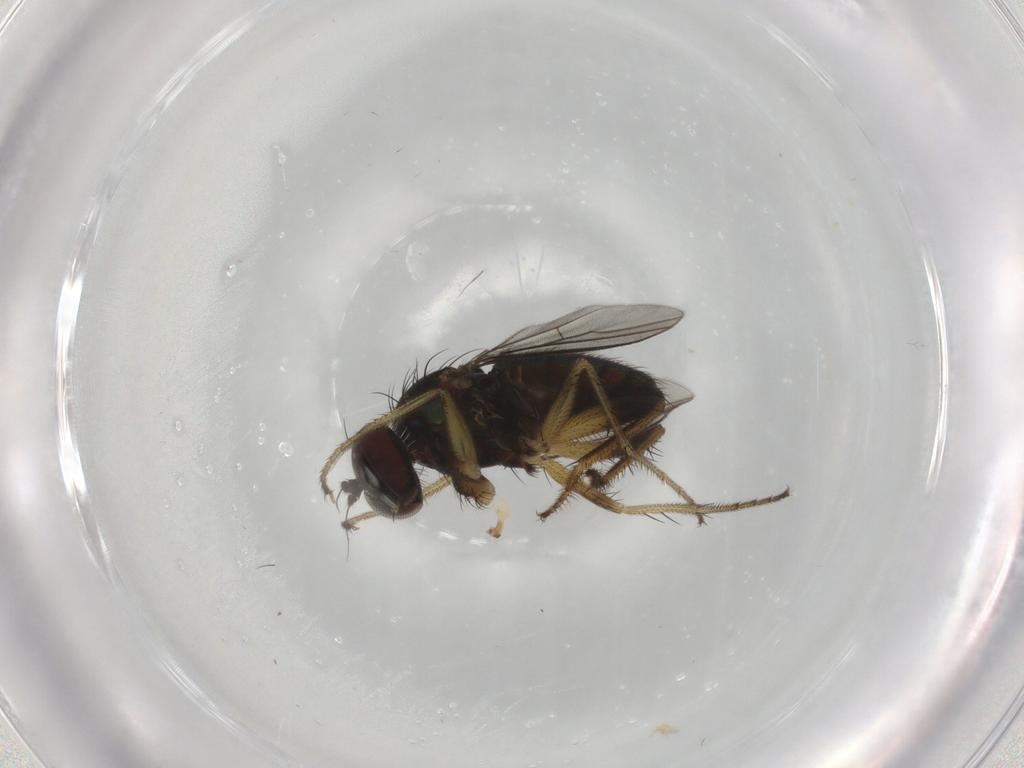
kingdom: Animalia
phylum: Arthropoda
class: Insecta
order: Diptera
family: Dolichopodidae
